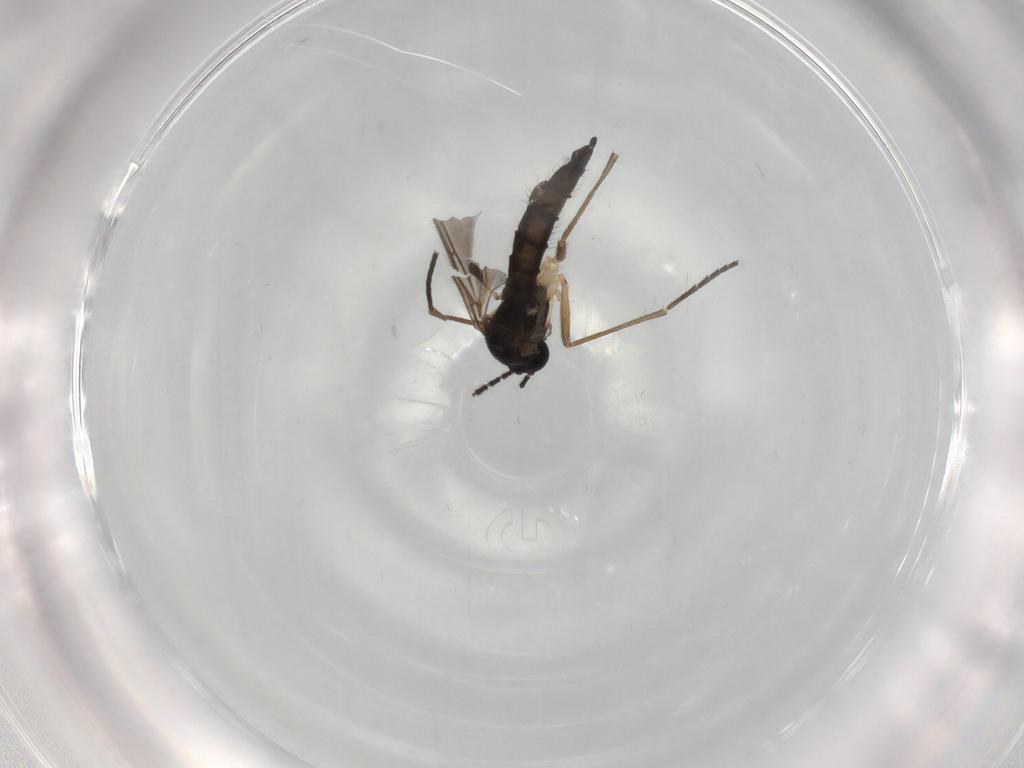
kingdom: Animalia
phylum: Arthropoda
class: Insecta
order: Diptera
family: Sciaridae
